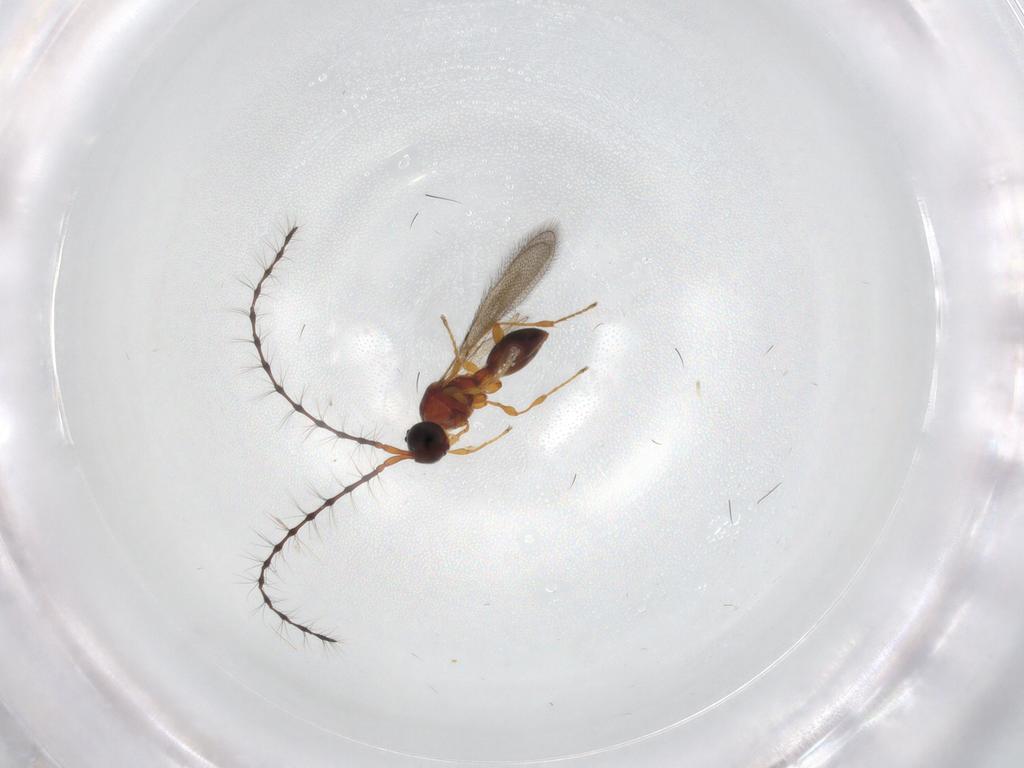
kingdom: Animalia
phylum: Arthropoda
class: Insecta
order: Hymenoptera
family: Diapriidae
